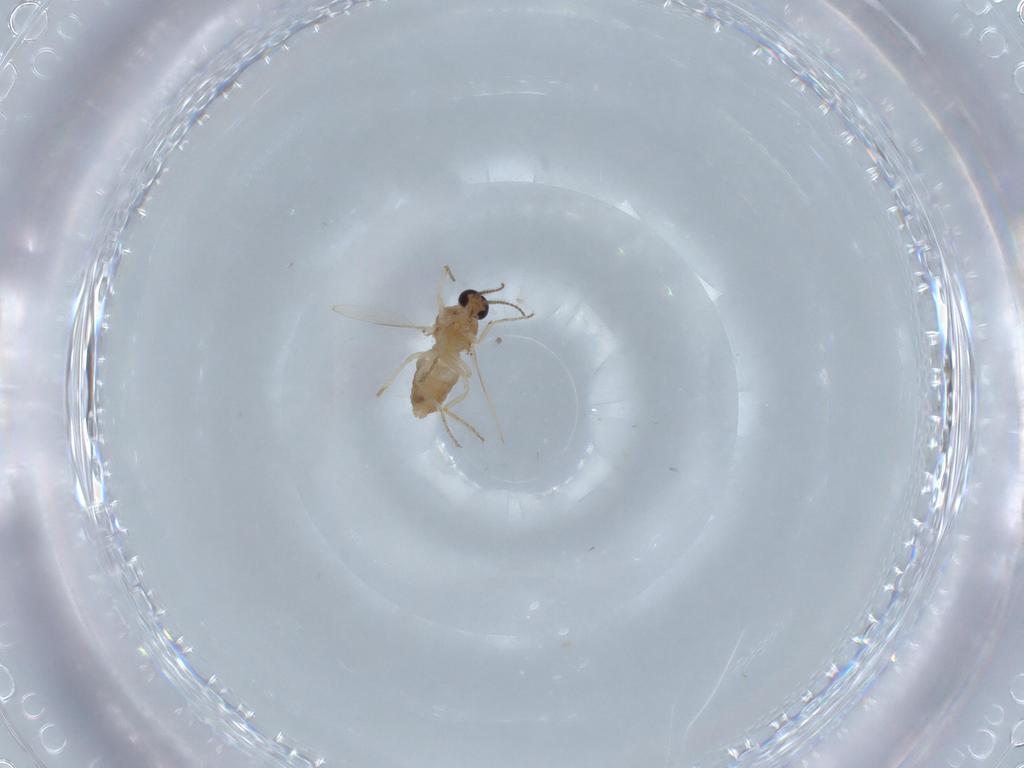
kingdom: Animalia
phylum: Arthropoda
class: Insecta
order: Diptera
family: Ceratopogonidae
